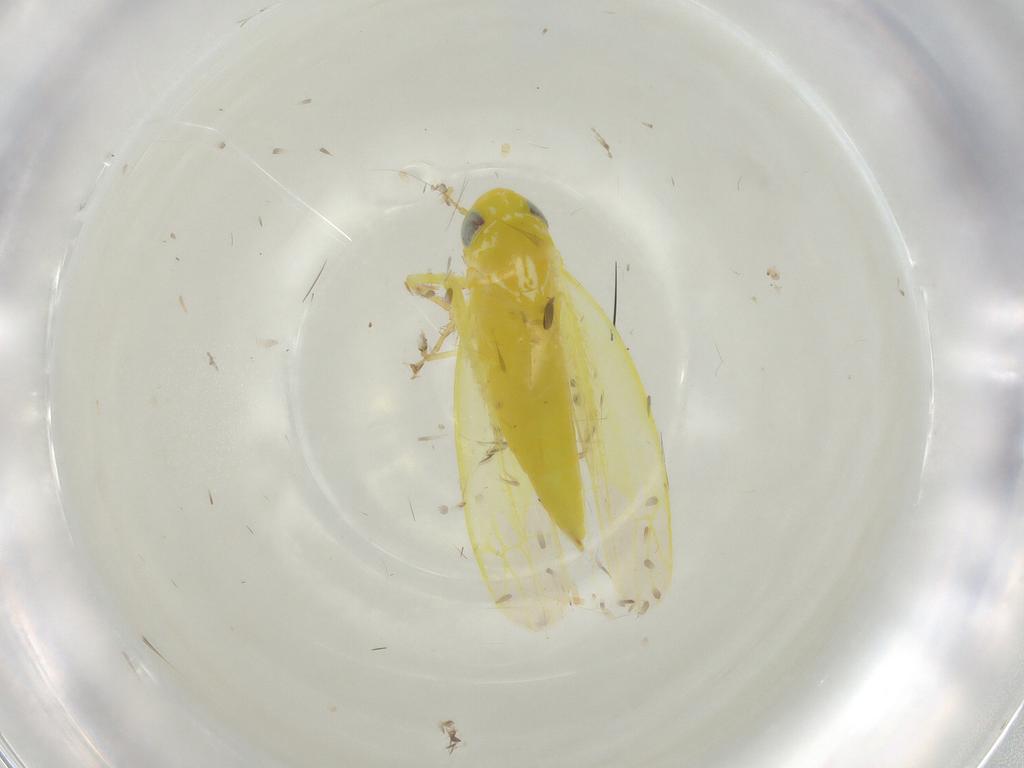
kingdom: Animalia
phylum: Arthropoda
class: Insecta
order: Hemiptera
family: Cicadellidae
